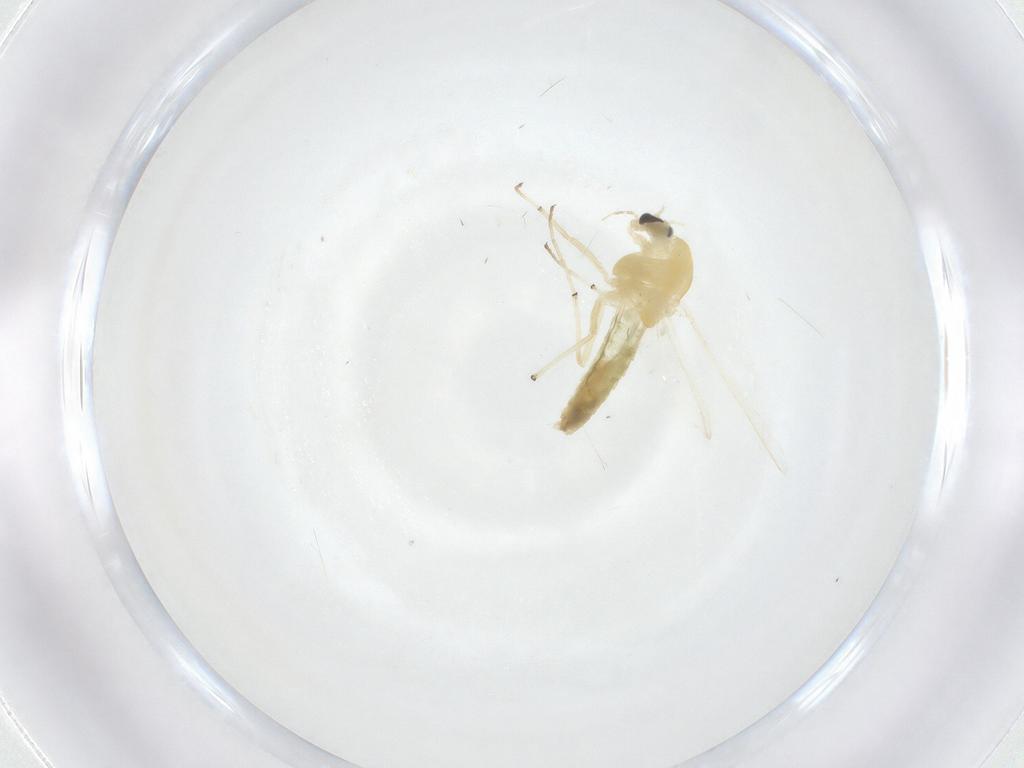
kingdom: Animalia
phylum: Arthropoda
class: Insecta
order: Diptera
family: Chironomidae
